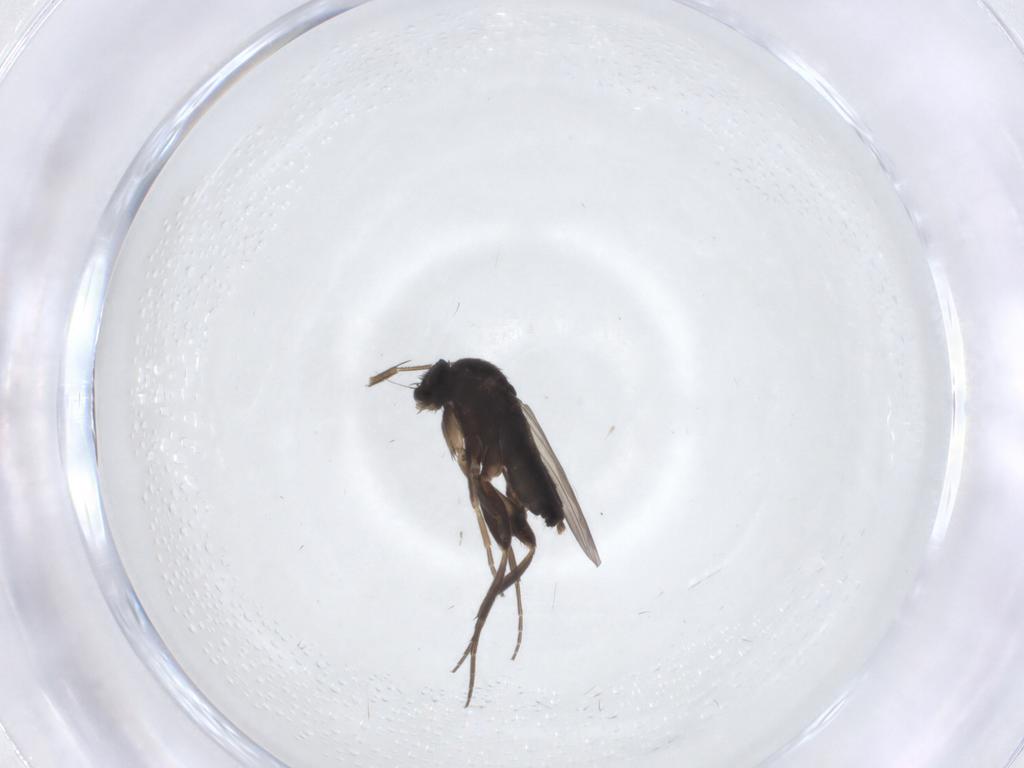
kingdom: Animalia
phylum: Arthropoda
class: Insecta
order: Diptera
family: Phoridae
